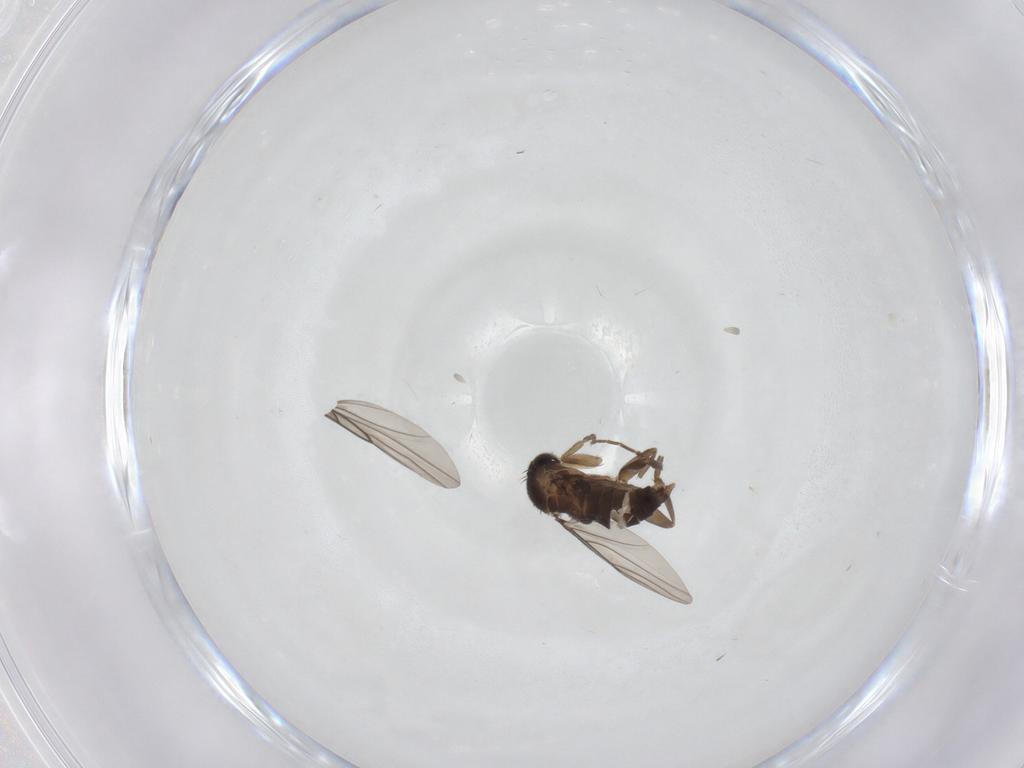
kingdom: Animalia
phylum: Arthropoda
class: Insecta
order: Diptera
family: Phoridae
